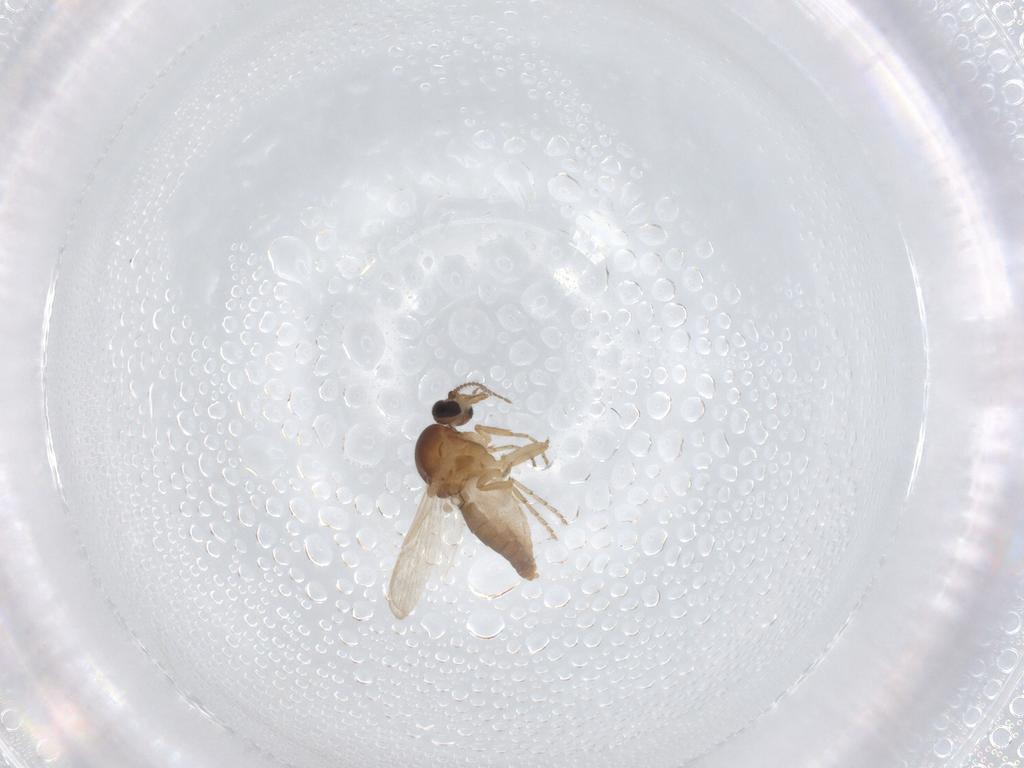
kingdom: Animalia
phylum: Arthropoda
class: Insecta
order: Diptera
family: Ceratopogonidae
